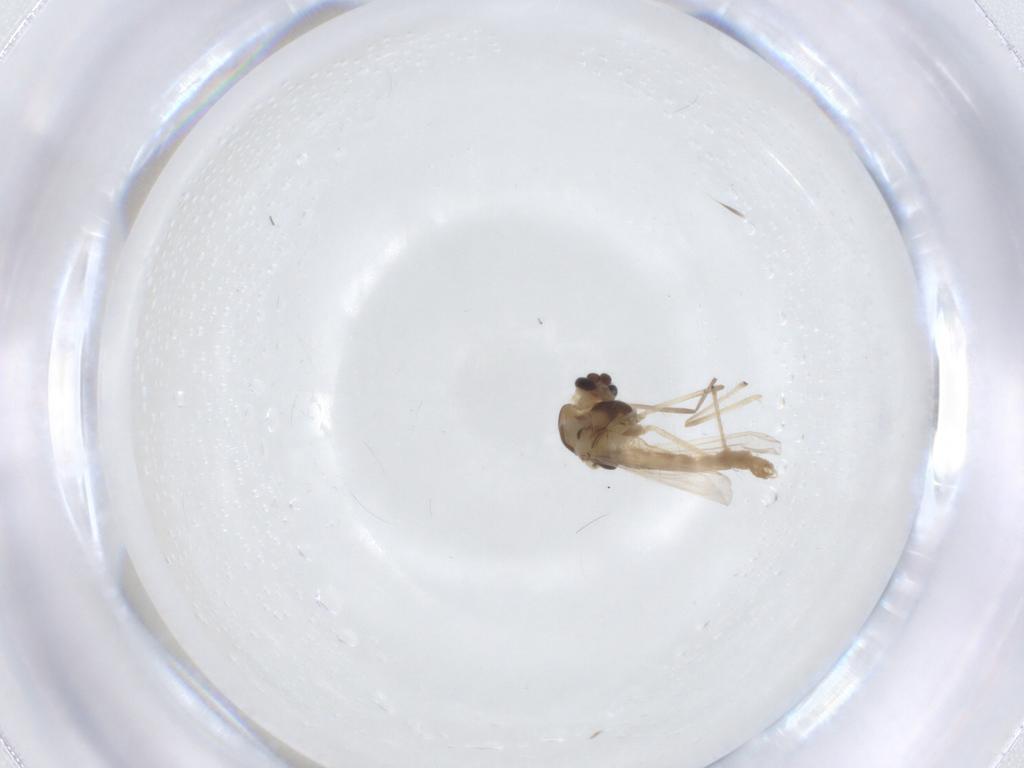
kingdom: Animalia
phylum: Arthropoda
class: Insecta
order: Diptera
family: Chironomidae
